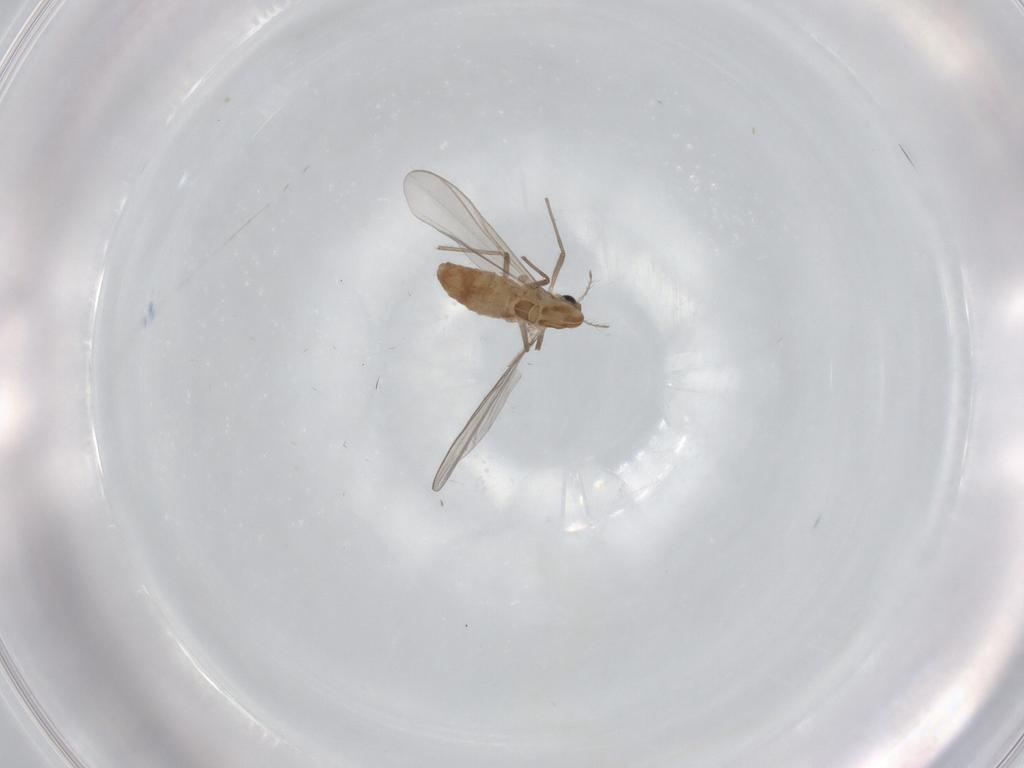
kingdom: Animalia
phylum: Arthropoda
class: Insecta
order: Diptera
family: Chironomidae
